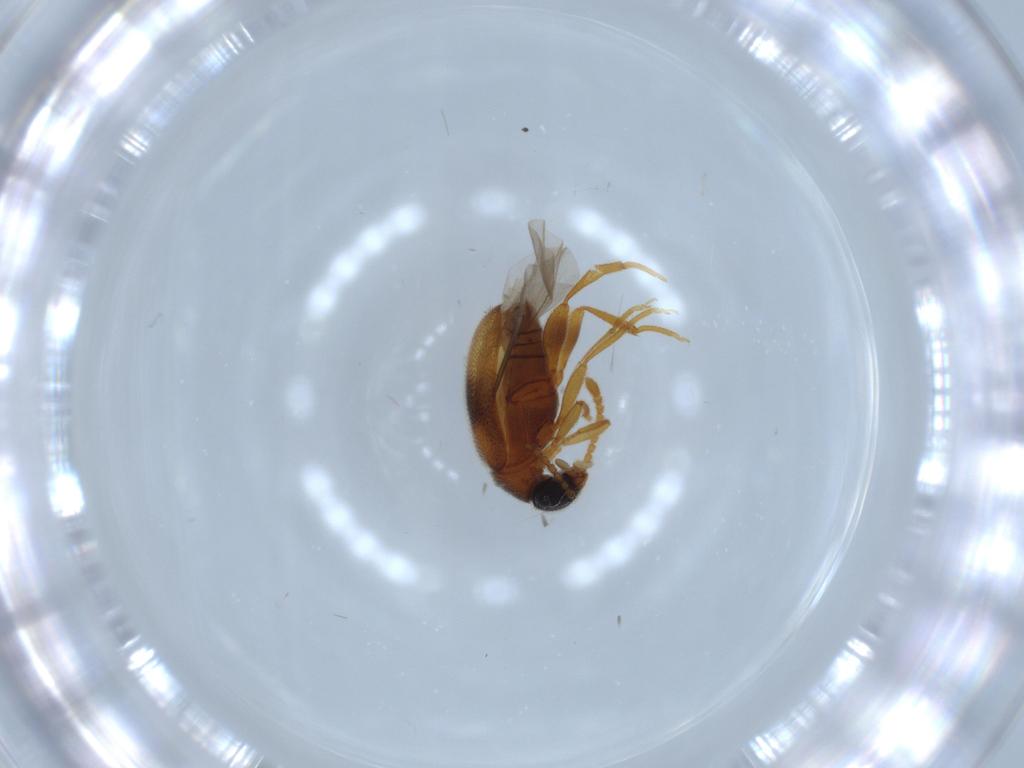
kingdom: Animalia
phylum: Arthropoda
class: Insecta
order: Coleoptera
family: Aderidae
